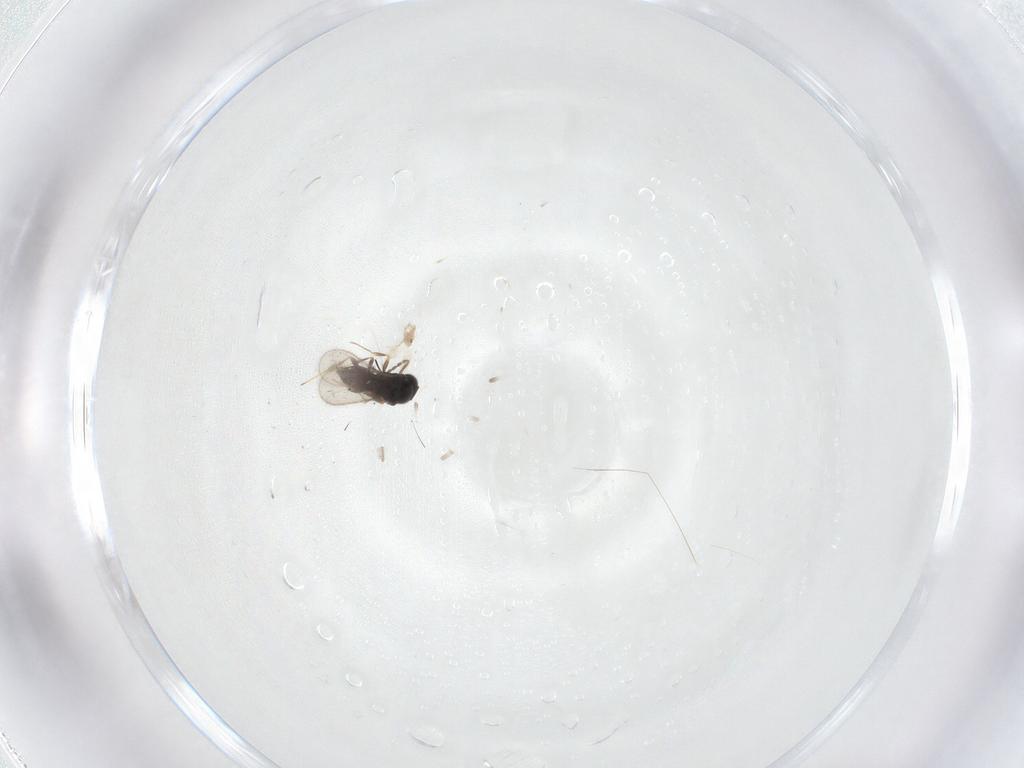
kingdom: Animalia
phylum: Arthropoda
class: Insecta
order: Hymenoptera
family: Scelionidae
